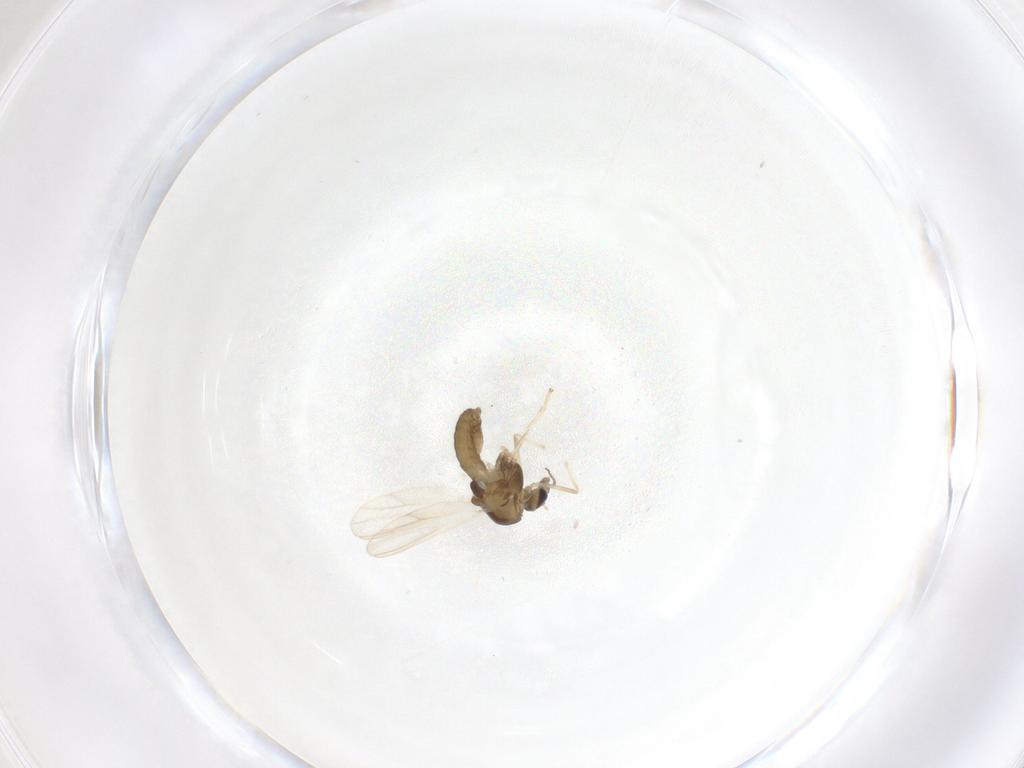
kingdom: Animalia
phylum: Arthropoda
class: Insecta
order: Diptera
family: Chironomidae
